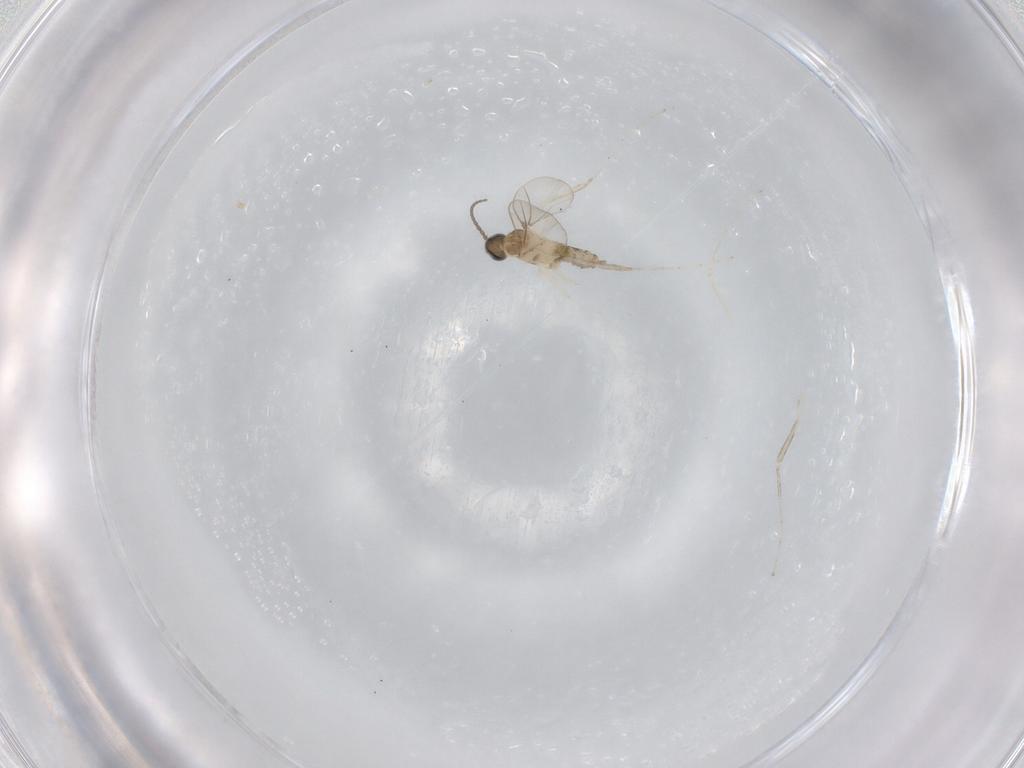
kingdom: Animalia
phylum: Arthropoda
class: Insecta
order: Diptera
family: Cecidomyiidae
